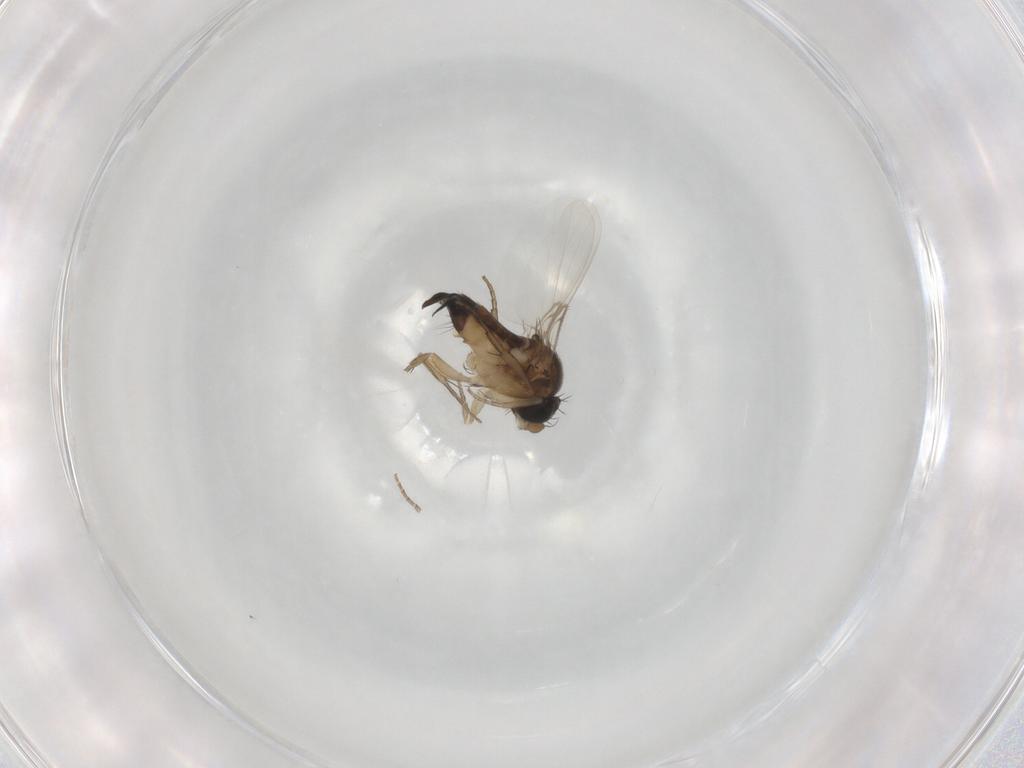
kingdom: Animalia
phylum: Arthropoda
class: Insecta
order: Diptera
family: Phoridae
